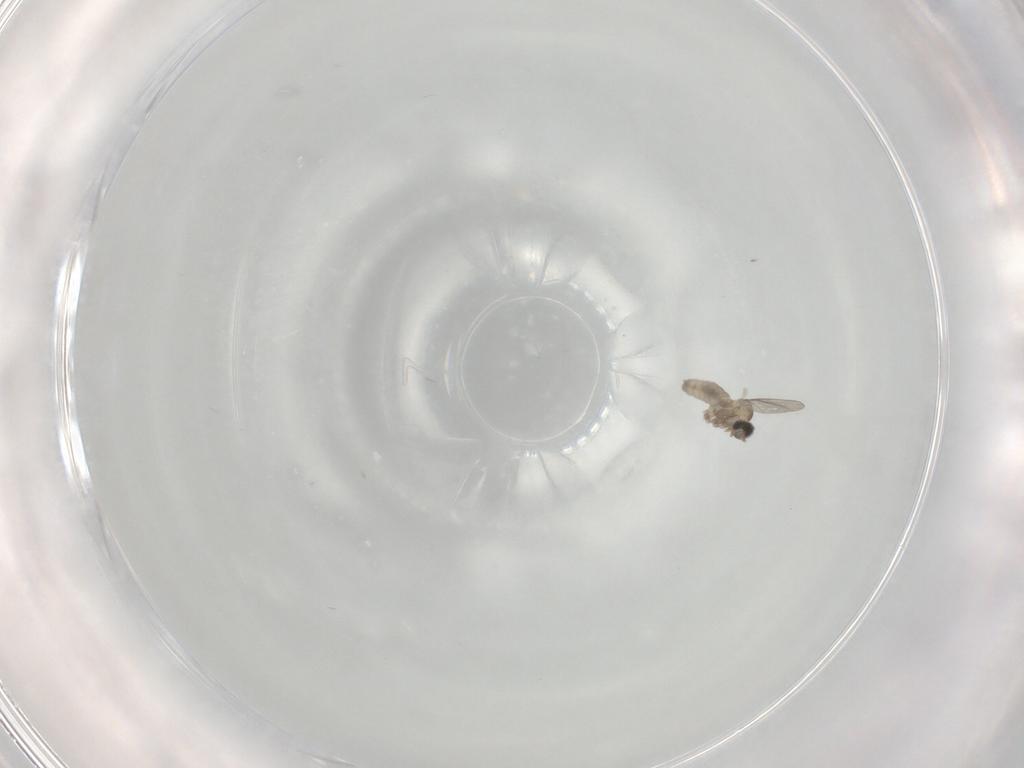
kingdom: Animalia
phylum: Arthropoda
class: Insecta
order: Diptera
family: Cecidomyiidae
